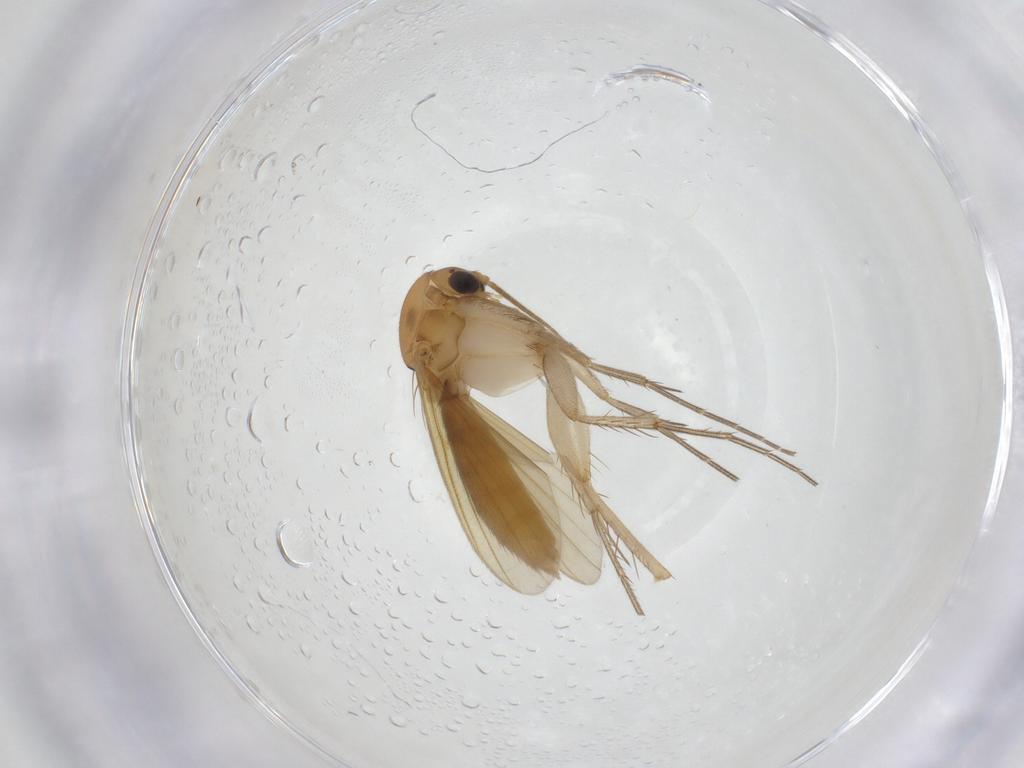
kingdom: Animalia
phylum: Arthropoda
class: Insecta
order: Diptera
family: Mycetophilidae
